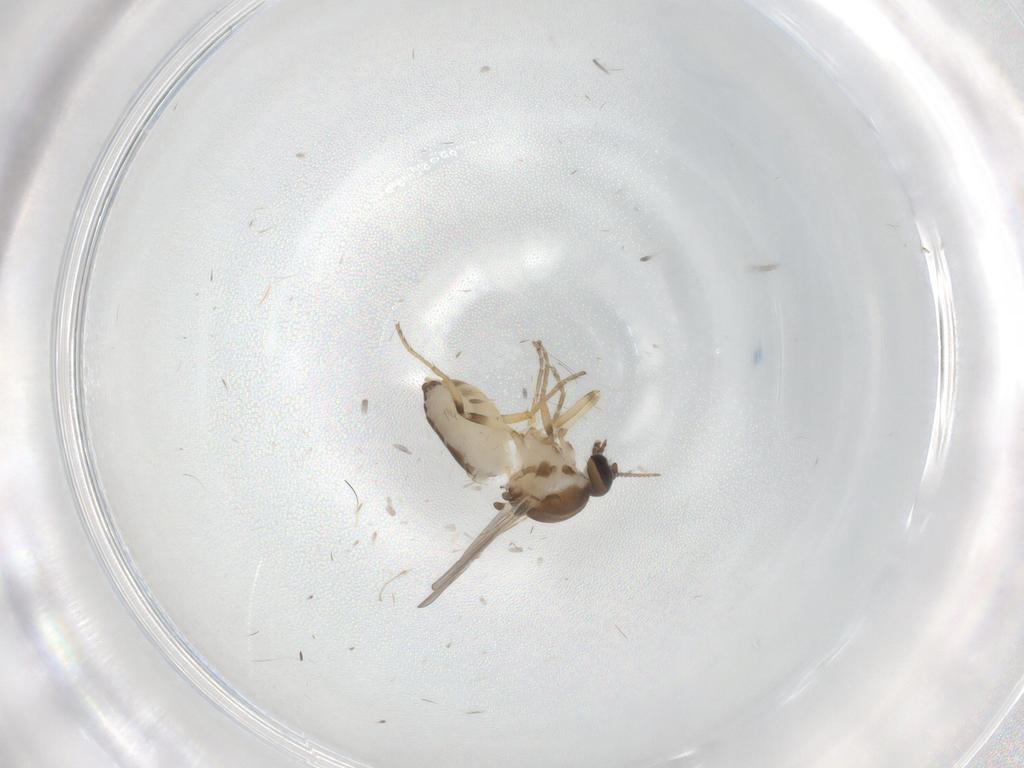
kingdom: Animalia
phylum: Arthropoda
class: Insecta
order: Diptera
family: Ceratopogonidae
